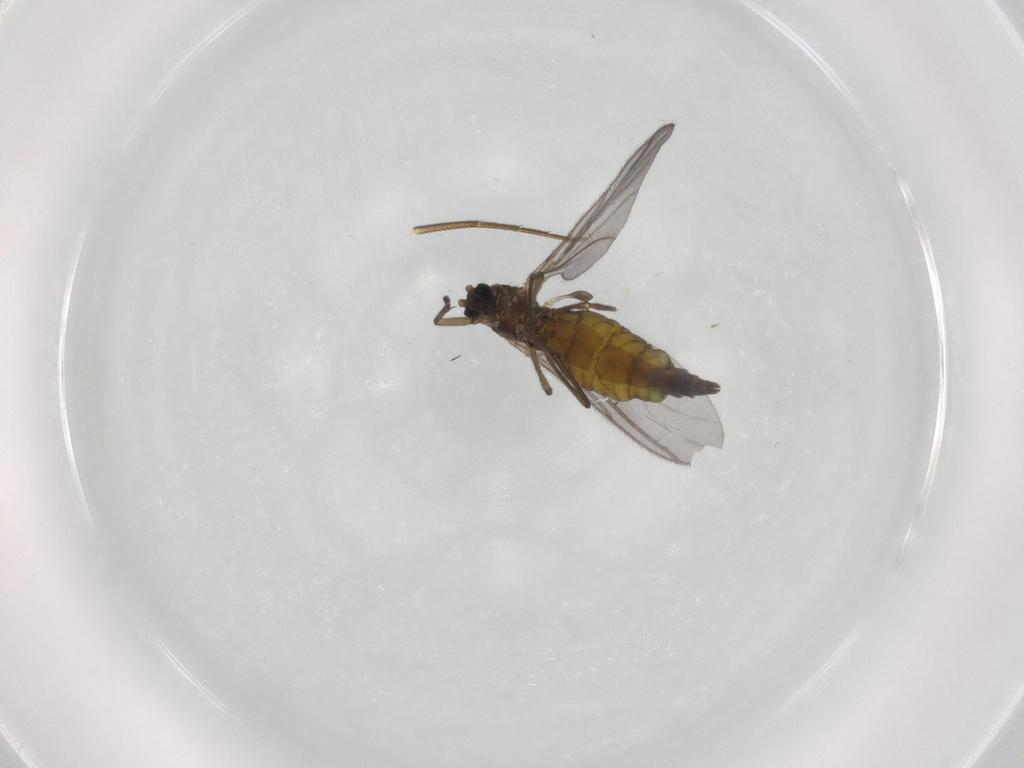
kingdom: Animalia
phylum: Arthropoda
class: Insecta
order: Diptera
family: Sciaridae
